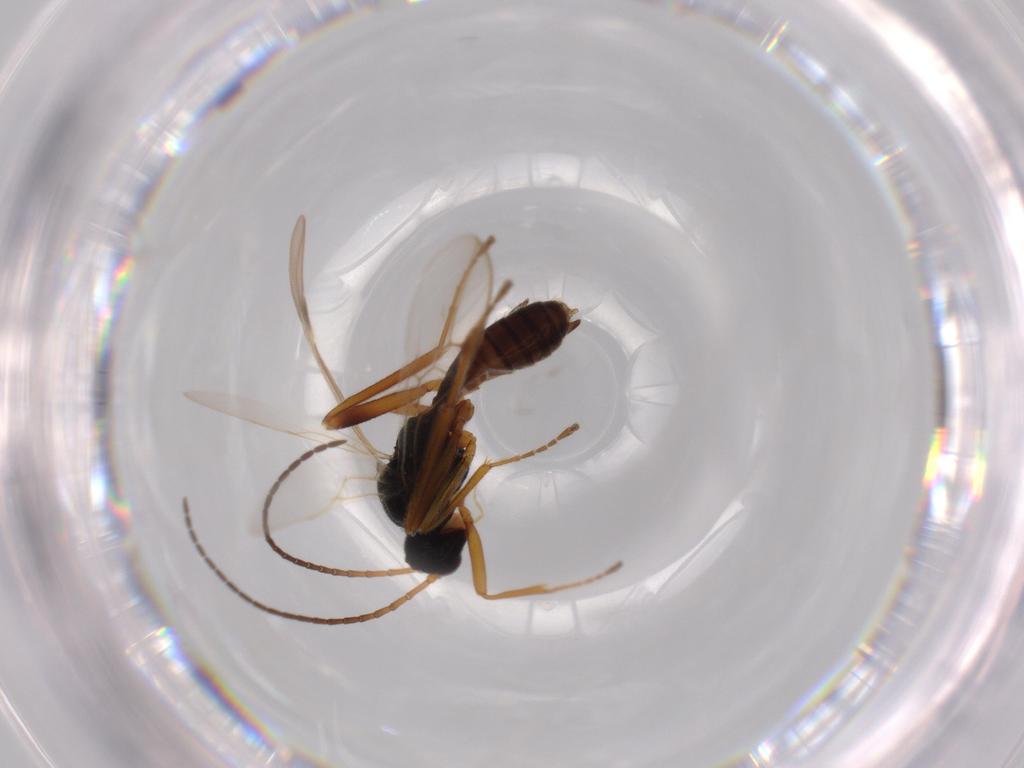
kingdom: Animalia
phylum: Arthropoda
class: Insecta
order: Hymenoptera
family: Braconidae
